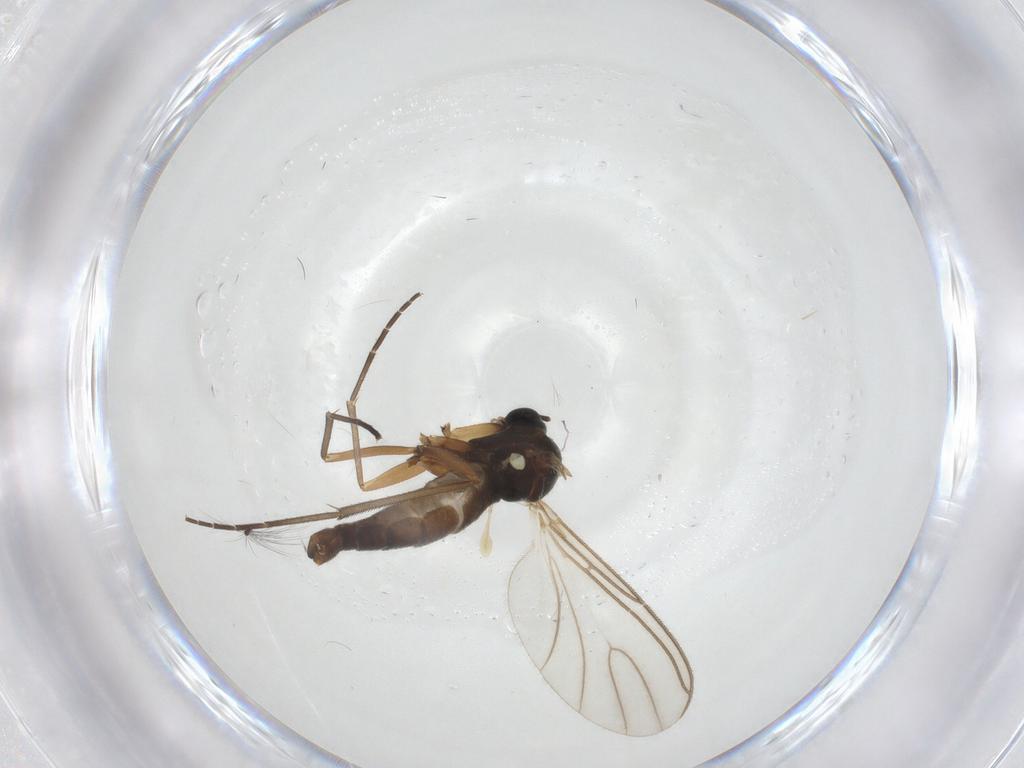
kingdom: Animalia
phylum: Arthropoda
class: Insecta
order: Diptera
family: Sciaridae
